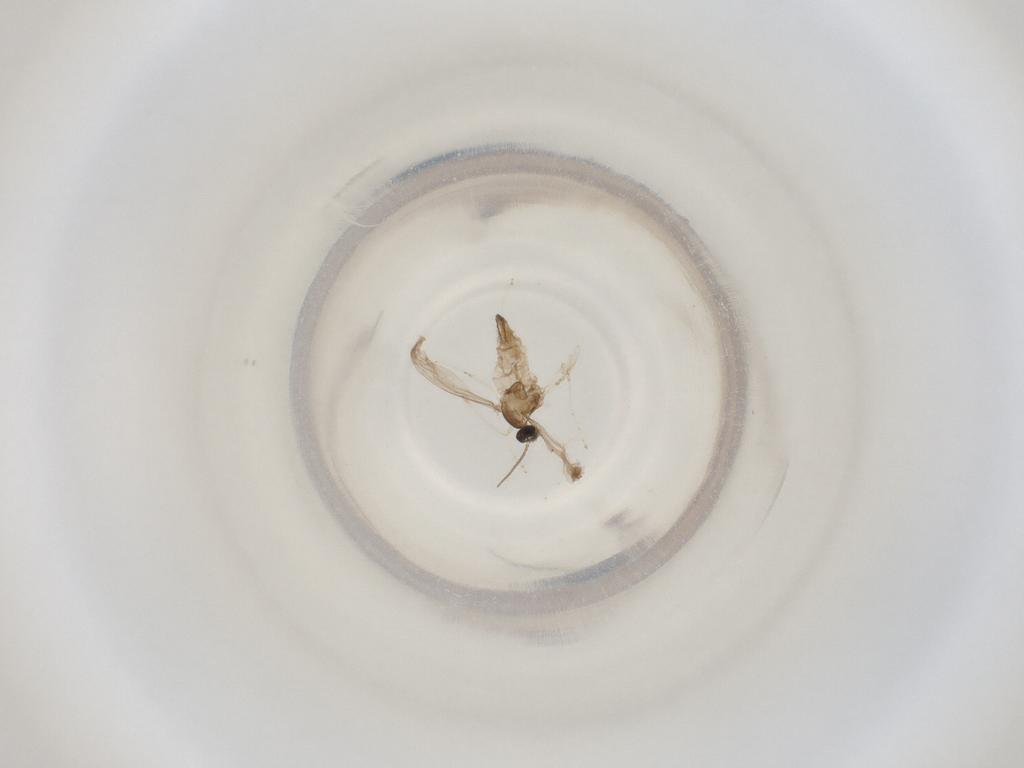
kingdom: Animalia
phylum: Arthropoda
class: Insecta
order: Diptera
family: Cecidomyiidae
